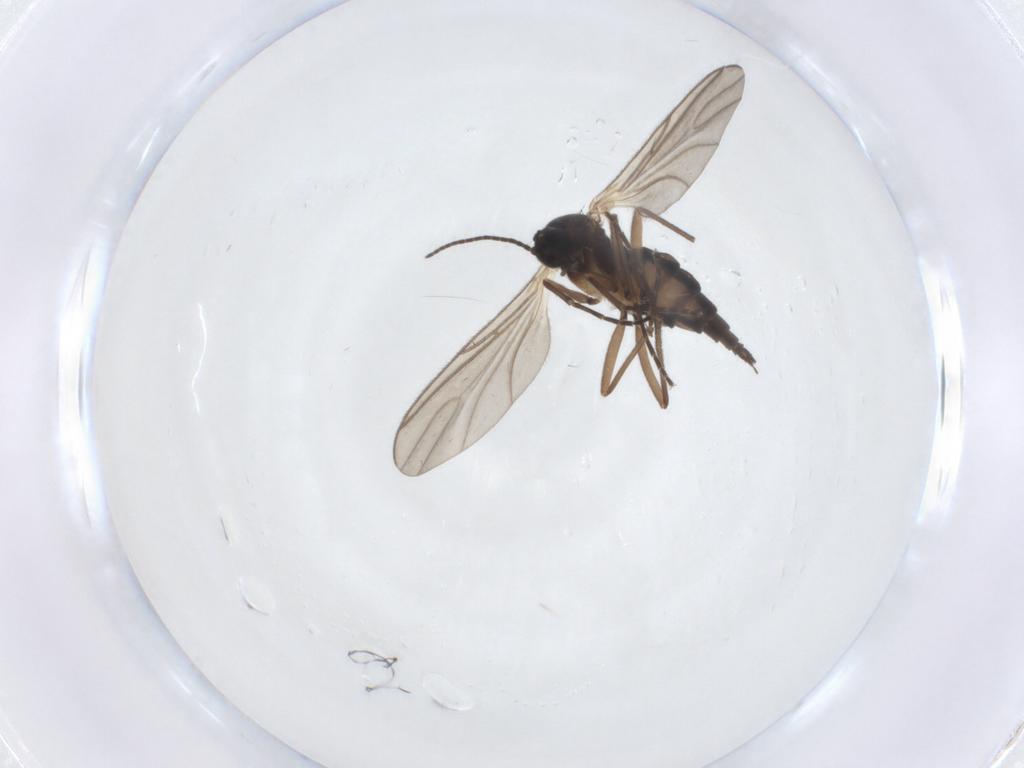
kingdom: Animalia
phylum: Arthropoda
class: Insecta
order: Diptera
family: Sciaridae
